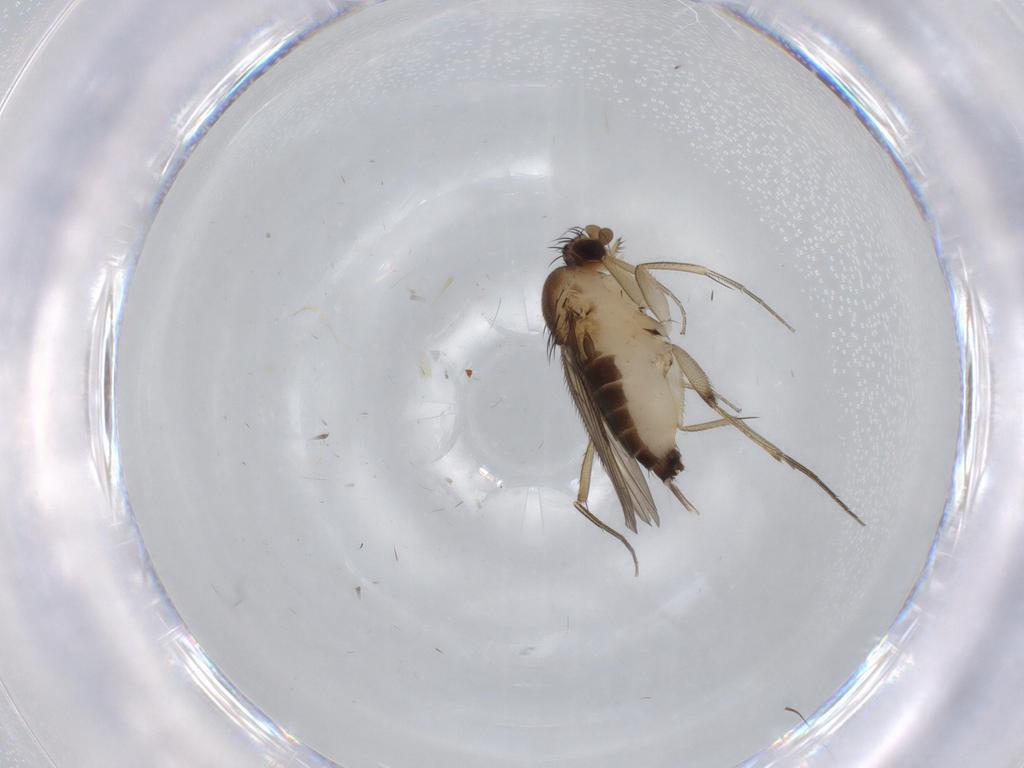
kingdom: Animalia
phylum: Arthropoda
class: Insecta
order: Diptera
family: Phoridae
